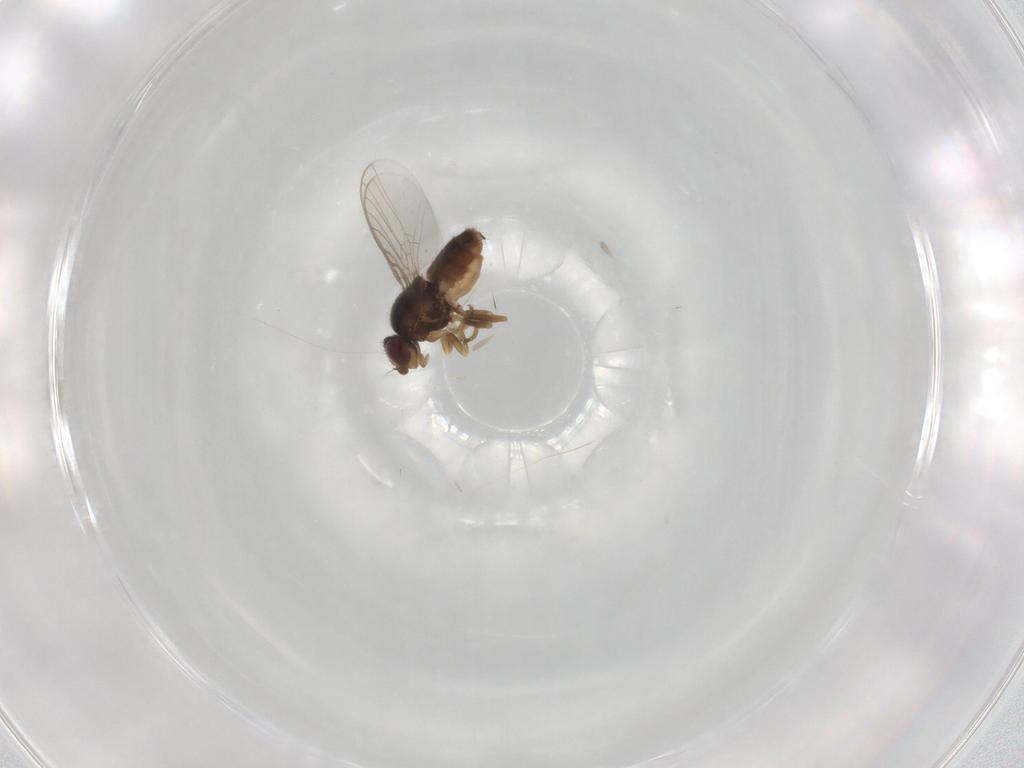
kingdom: Animalia
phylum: Arthropoda
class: Insecta
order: Diptera
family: Chloropidae
